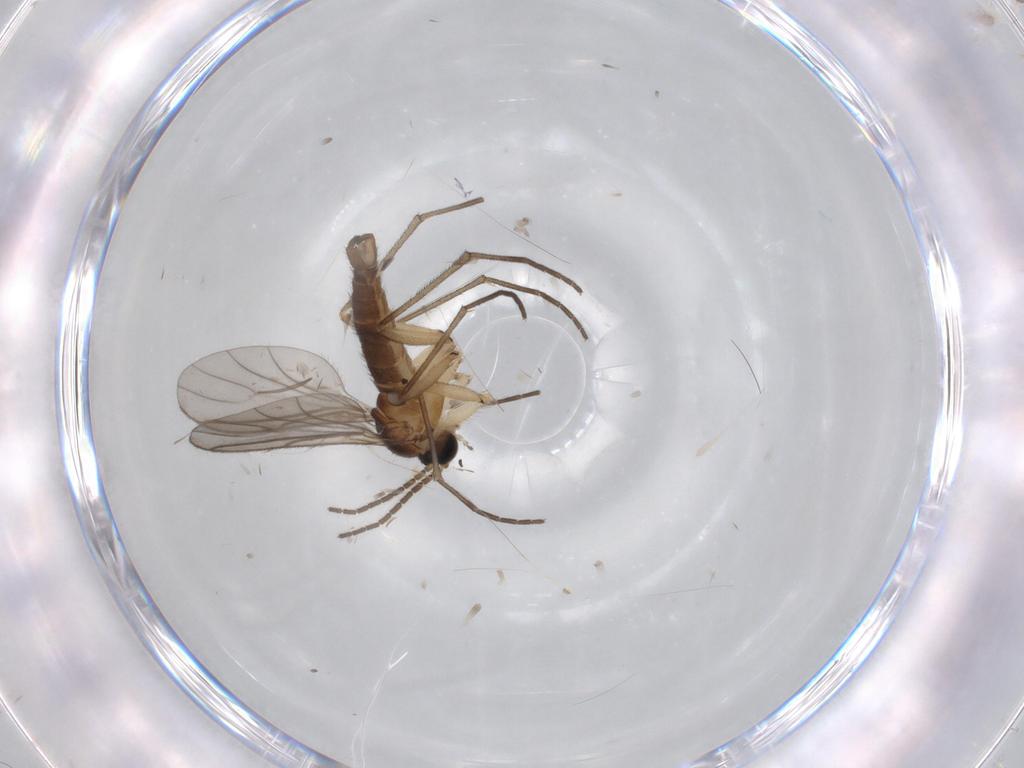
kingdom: Animalia
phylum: Arthropoda
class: Insecta
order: Diptera
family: Sciaridae
